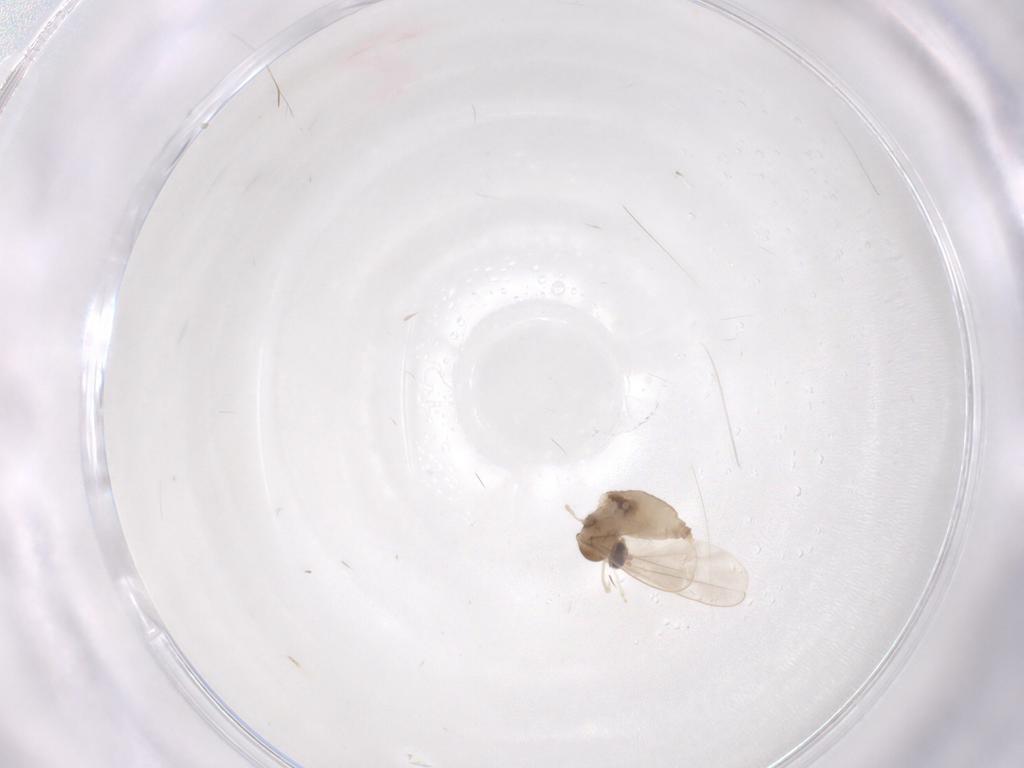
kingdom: Animalia
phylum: Arthropoda
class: Insecta
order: Diptera
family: Cecidomyiidae
